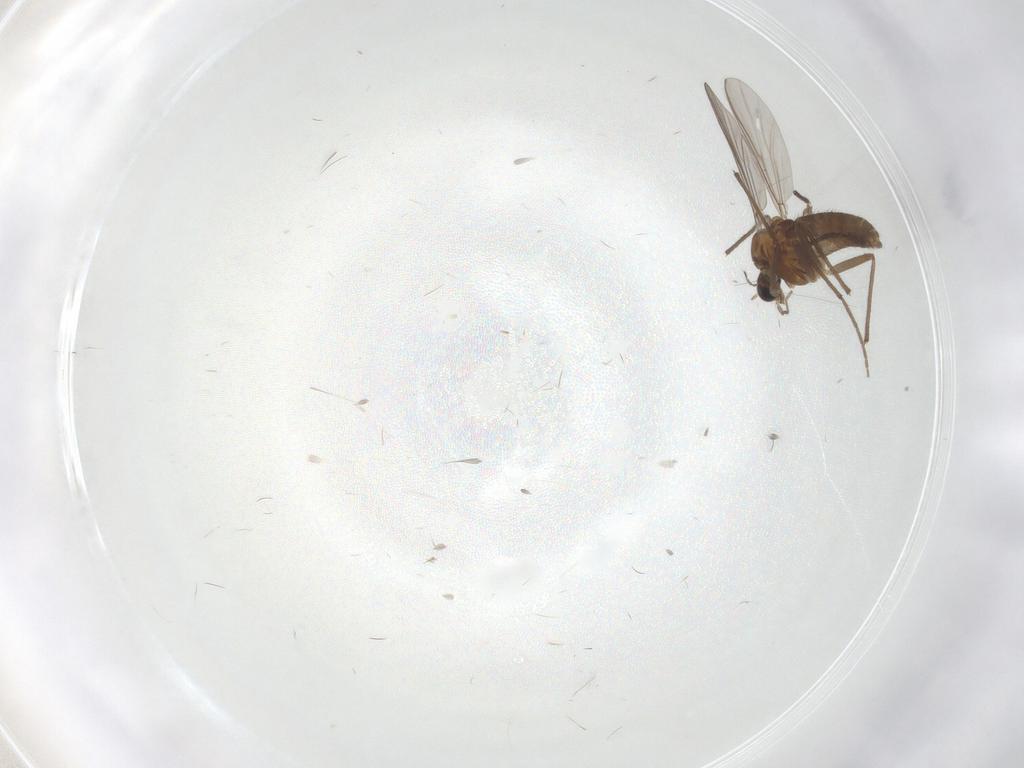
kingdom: Animalia
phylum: Arthropoda
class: Insecta
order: Diptera
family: Chironomidae
